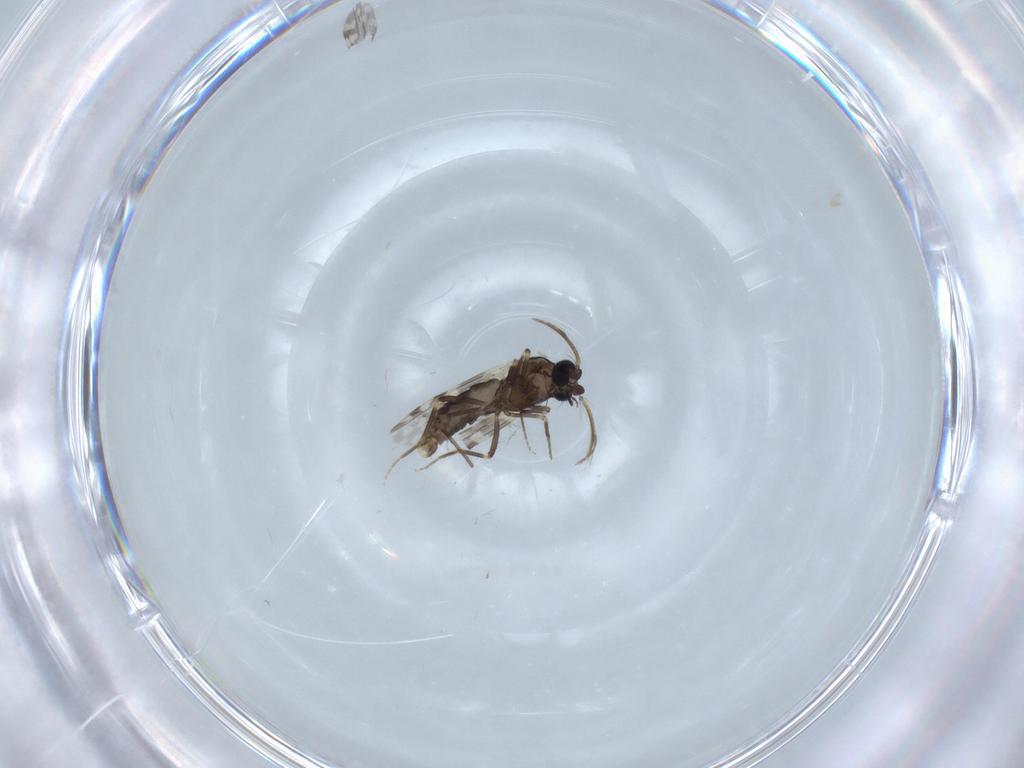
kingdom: Animalia
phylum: Arthropoda
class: Insecta
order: Diptera
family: Ceratopogonidae
